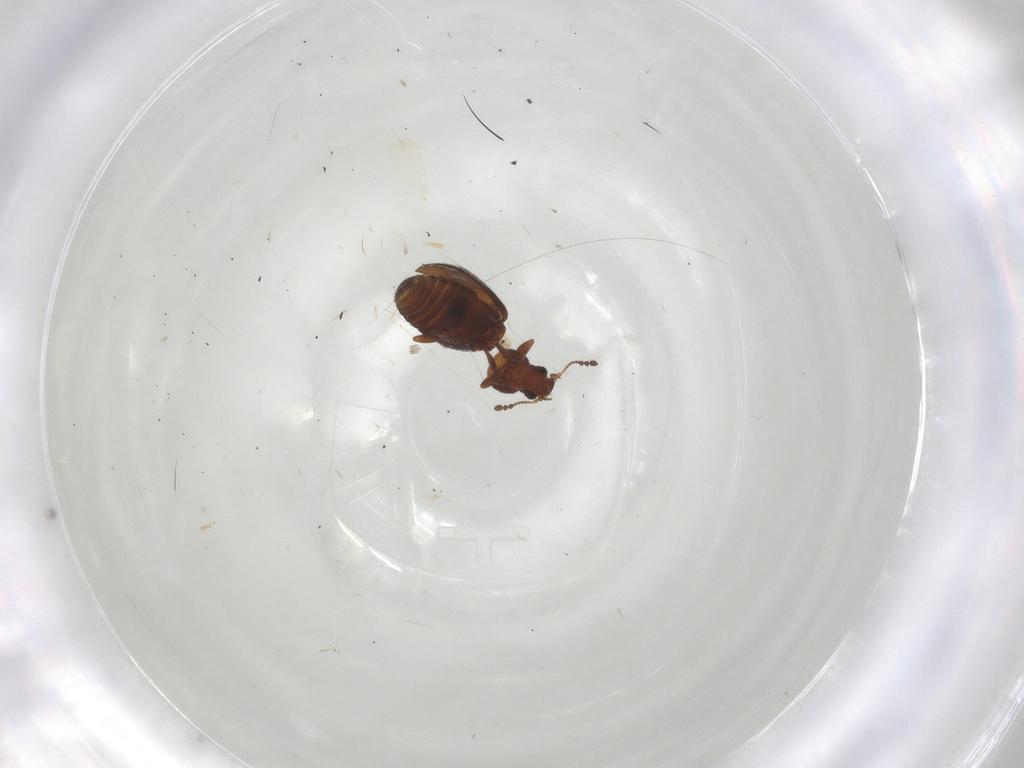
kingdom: Animalia
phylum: Arthropoda
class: Insecta
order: Coleoptera
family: Latridiidae
